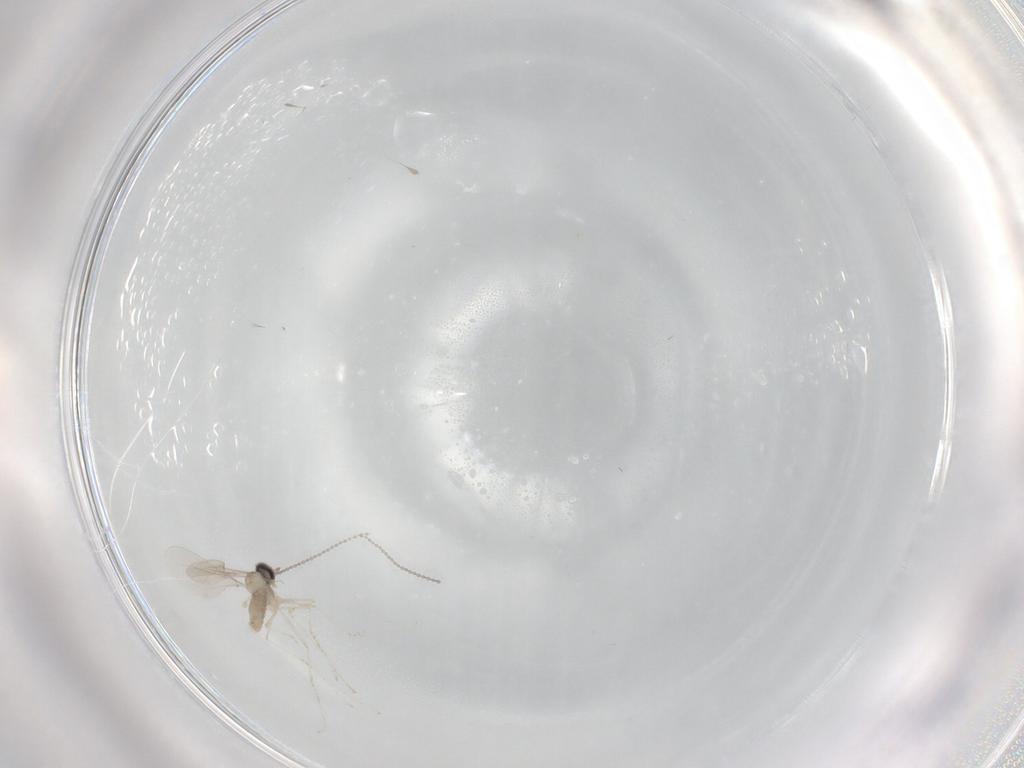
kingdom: Animalia
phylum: Arthropoda
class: Insecta
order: Diptera
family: Cecidomyiidae
